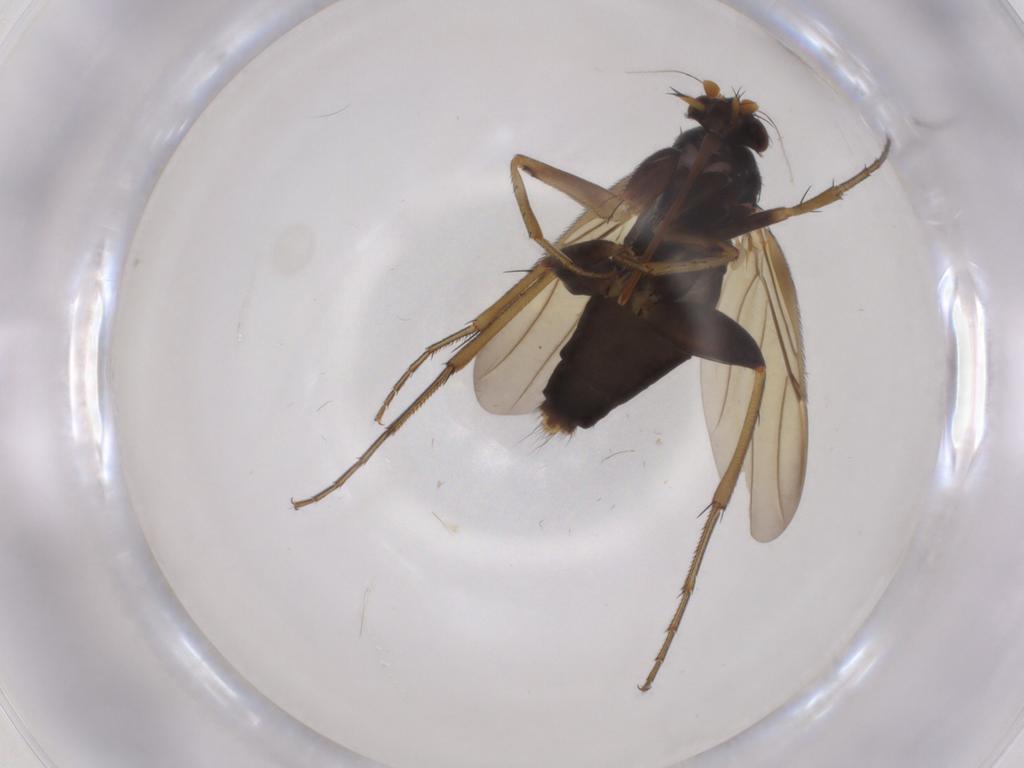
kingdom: Animalia
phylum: Arthropoda
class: Insecta
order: Diptera
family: Phoridae
